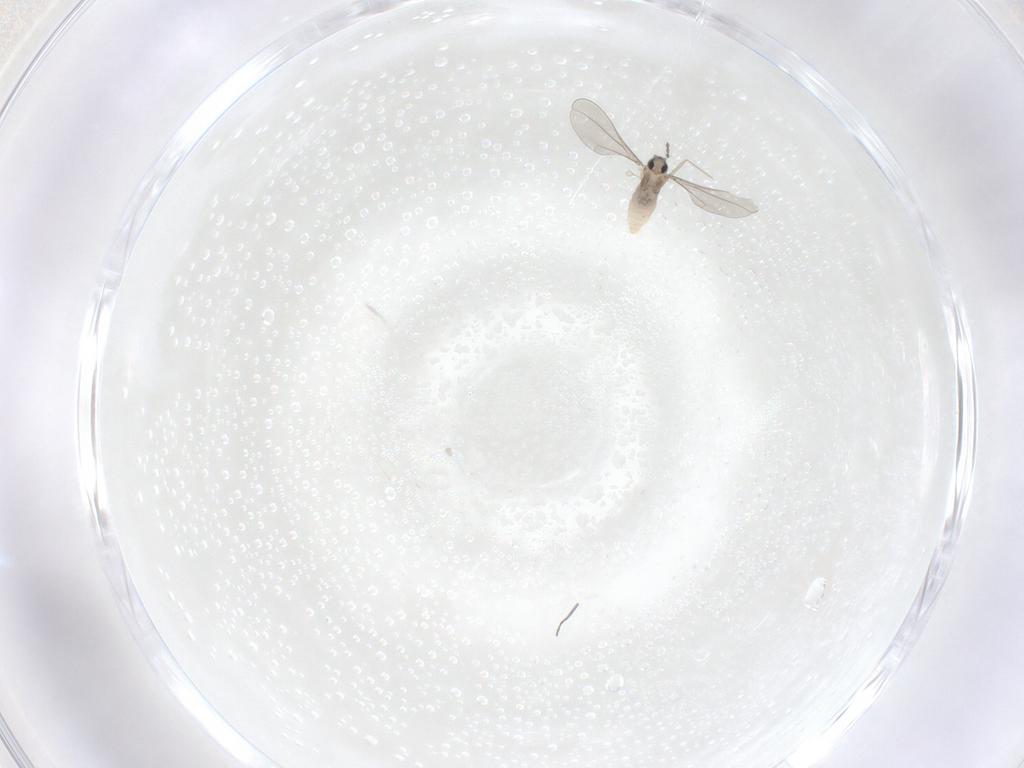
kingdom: Animalia
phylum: Arthropoda
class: Insecta
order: Diptera
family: Cecidomyiidae
